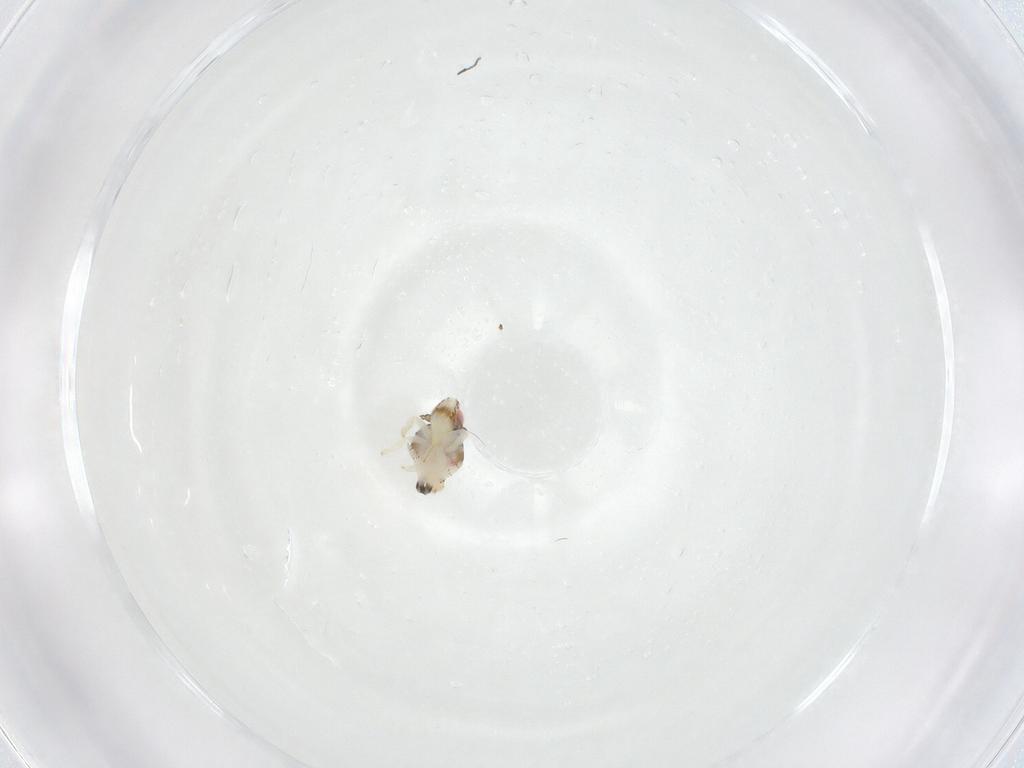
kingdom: Animalia
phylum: Arthropoda
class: Insecta
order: Hemiptera
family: Nogodinidae
